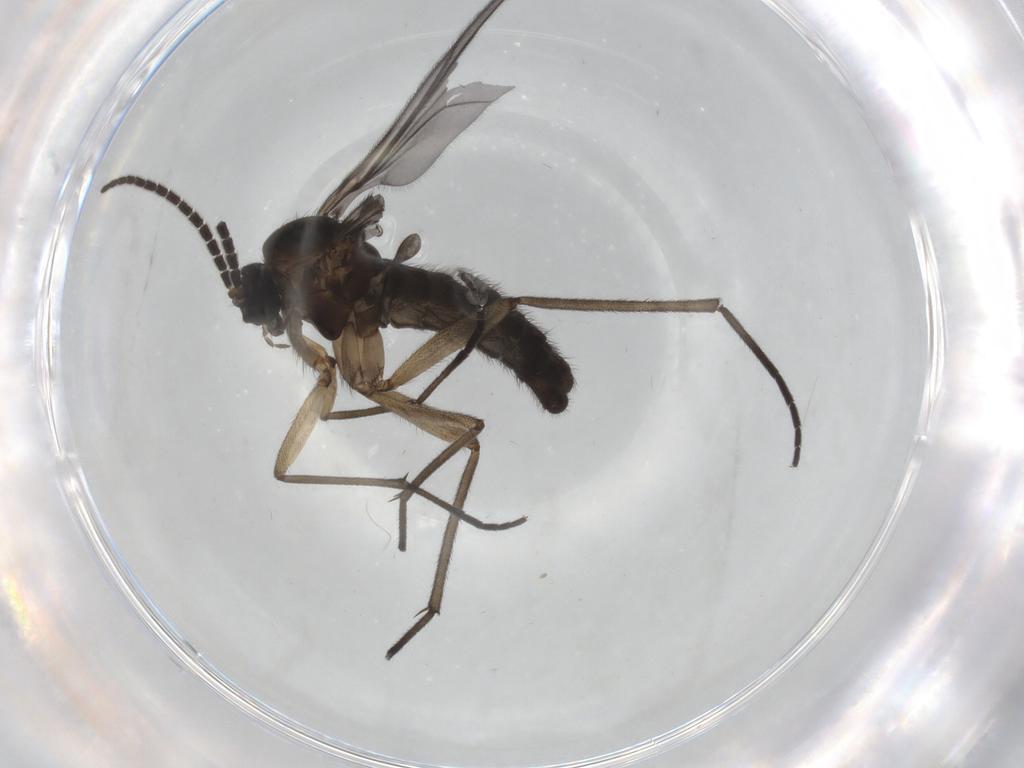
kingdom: Animalia
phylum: Arthropoda
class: Insecta
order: Diptera
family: Sciaridae
